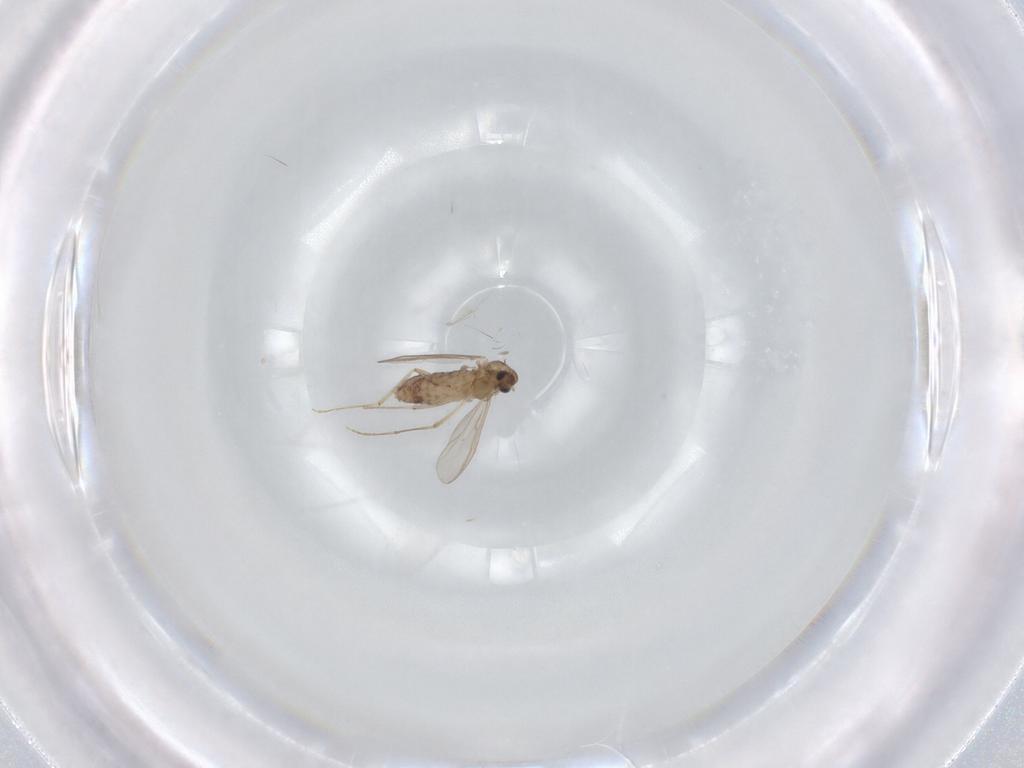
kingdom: Animalia
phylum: Arthropoda
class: Insecta
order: Diptera
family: Chironomidae
